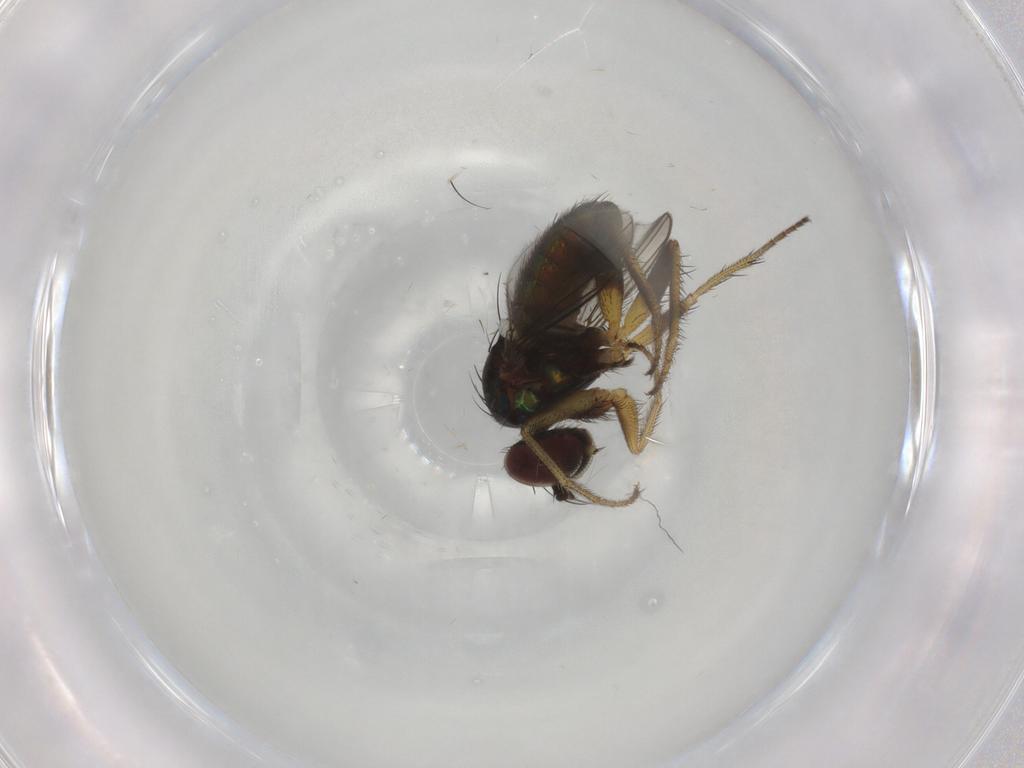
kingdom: Animalia
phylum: Arthropoda
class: Insecta
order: Diptera
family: Dolichopodidae
